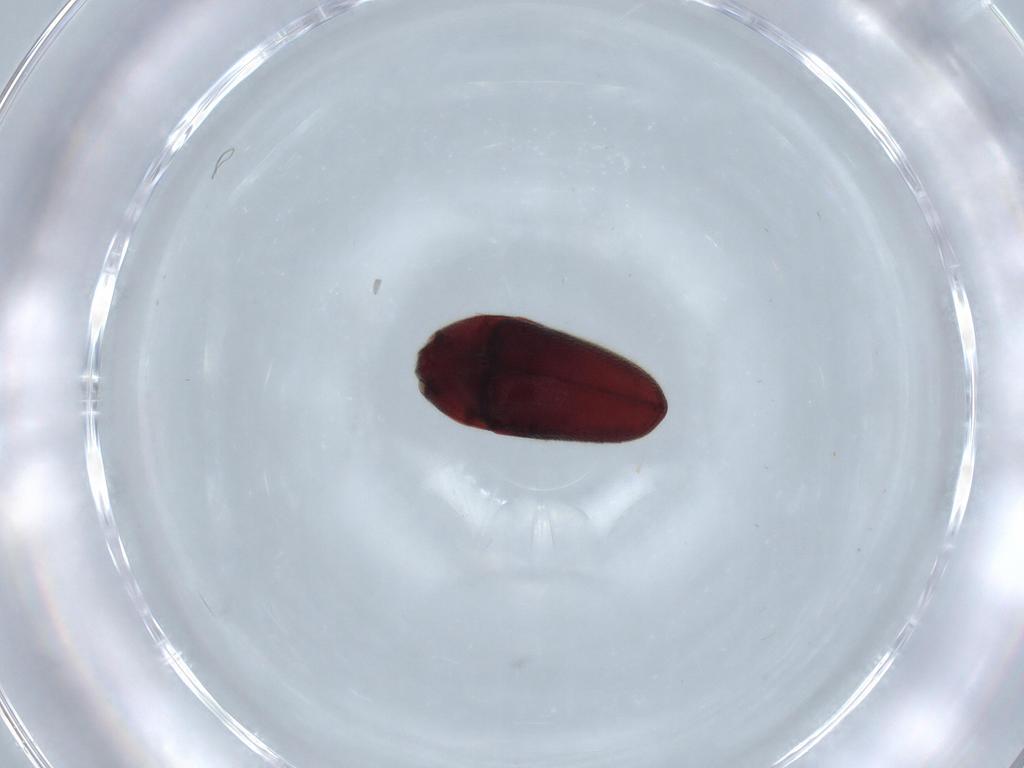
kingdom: Animalia
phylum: Arthropoda
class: Insecta
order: Coleoptera
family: Throscidae
